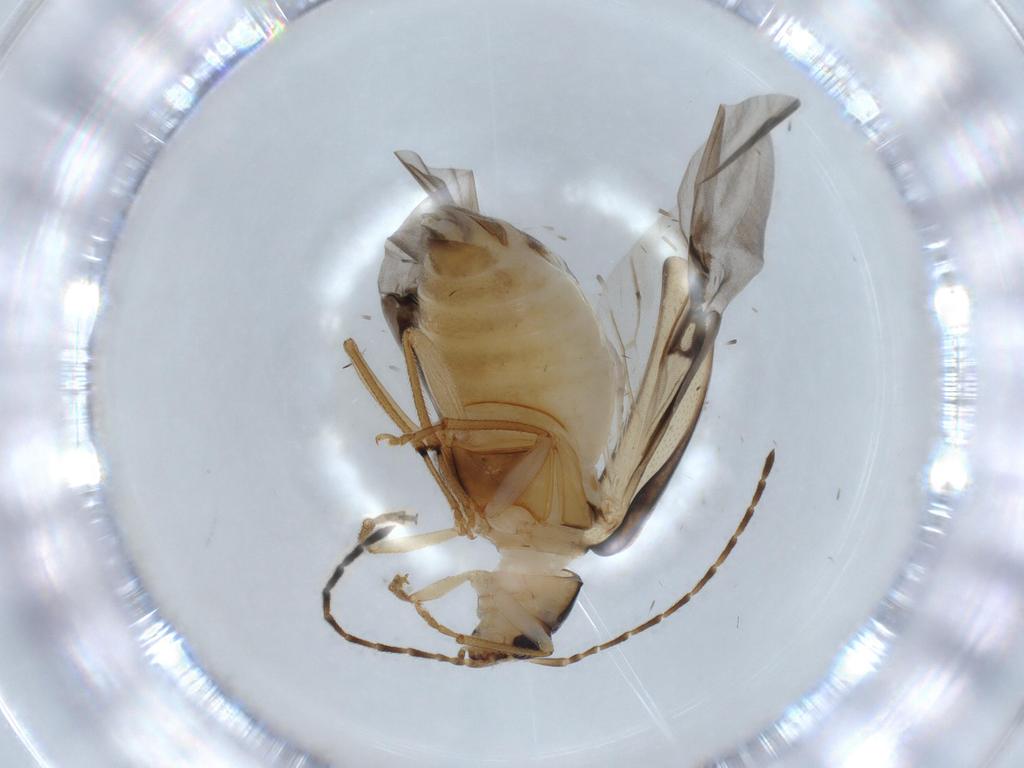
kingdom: Animalia
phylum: Arthropoda
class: Insecta
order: Coleoptera
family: Chrysomelidae
